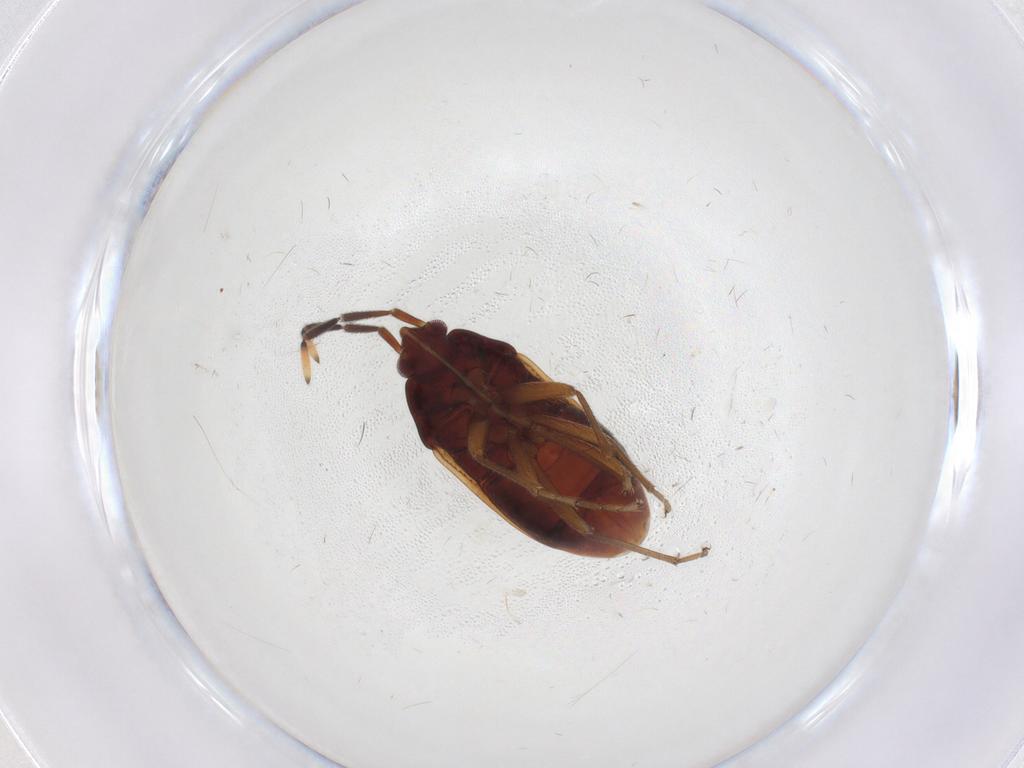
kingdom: Animalia
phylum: Arthropoda
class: Insecta
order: Hemiptera
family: Rhyparochromidae
